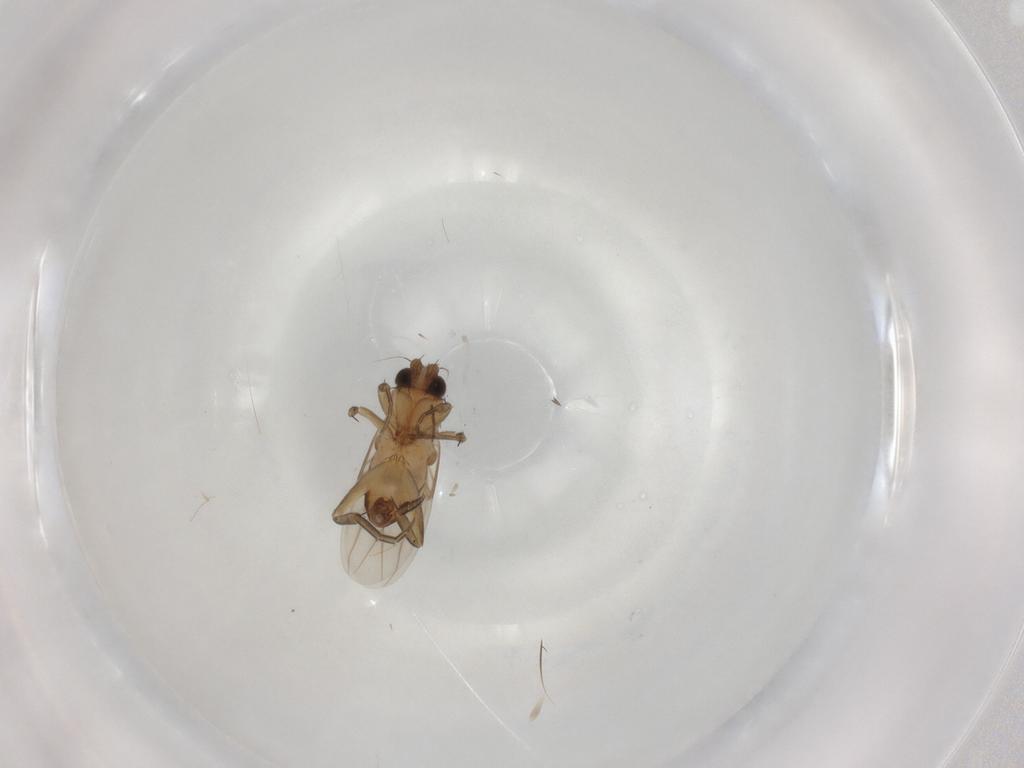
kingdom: Animalia
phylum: Arthropoda
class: Insecta
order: Diptera
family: Phoridae
